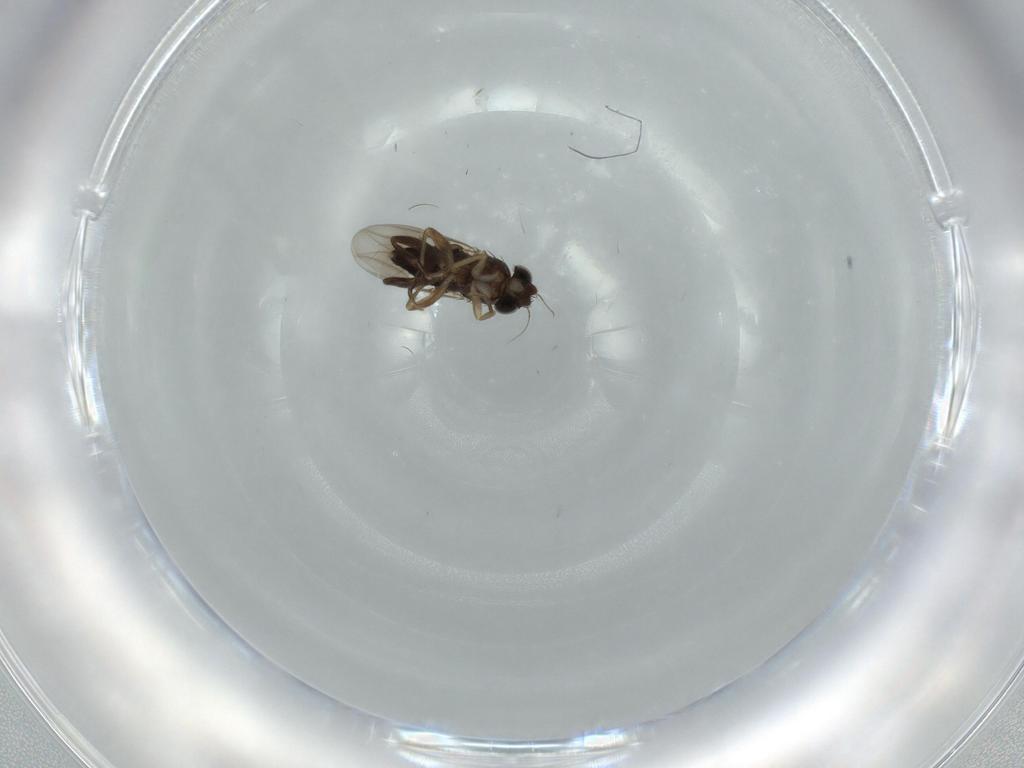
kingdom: Animalia
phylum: Arthropoda
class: Insecta
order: Diptera
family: Phoridae
